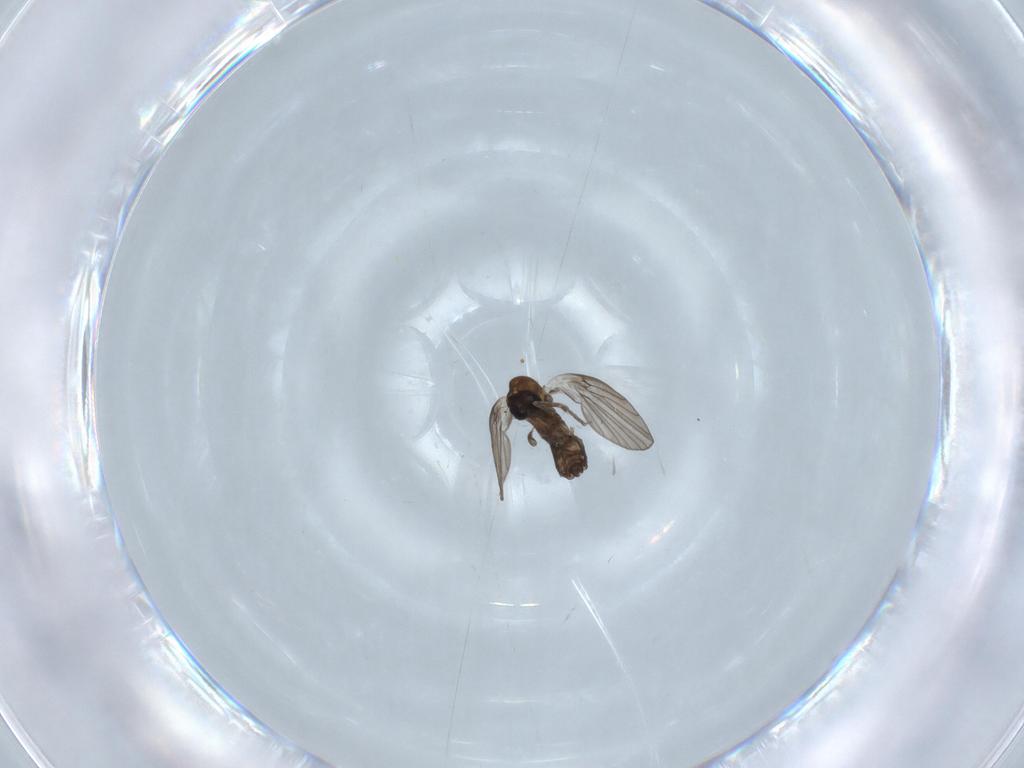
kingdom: Animalia
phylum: Arthropoda
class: Insecta
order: Diptera
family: Psychodidae
